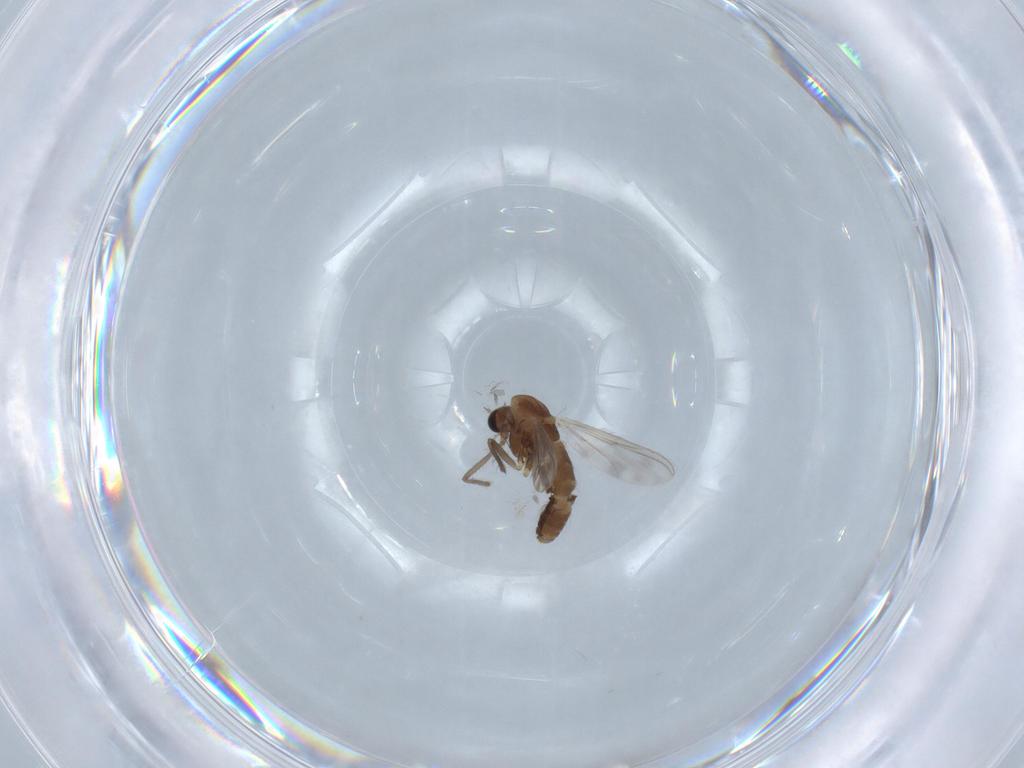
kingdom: Animalia
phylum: Arthropoda
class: Insecta
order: Diptera
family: Chironomidae
